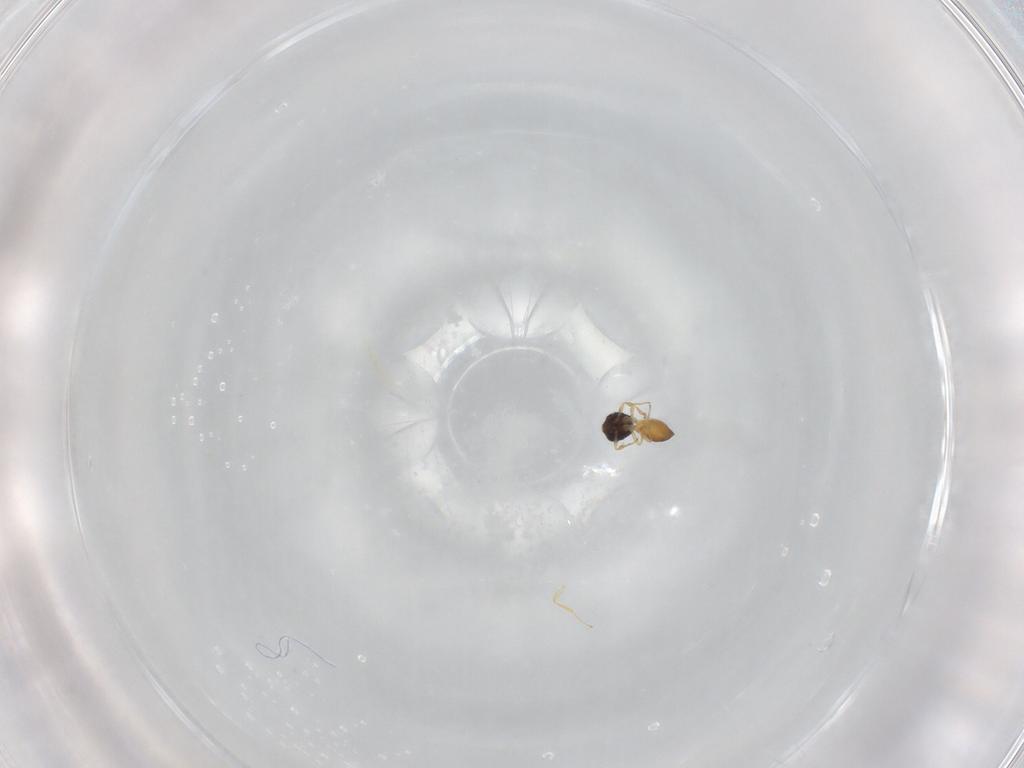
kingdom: Animalia
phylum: Arthropoda
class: Insecta
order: Hymenoptera
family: Scelionidae
